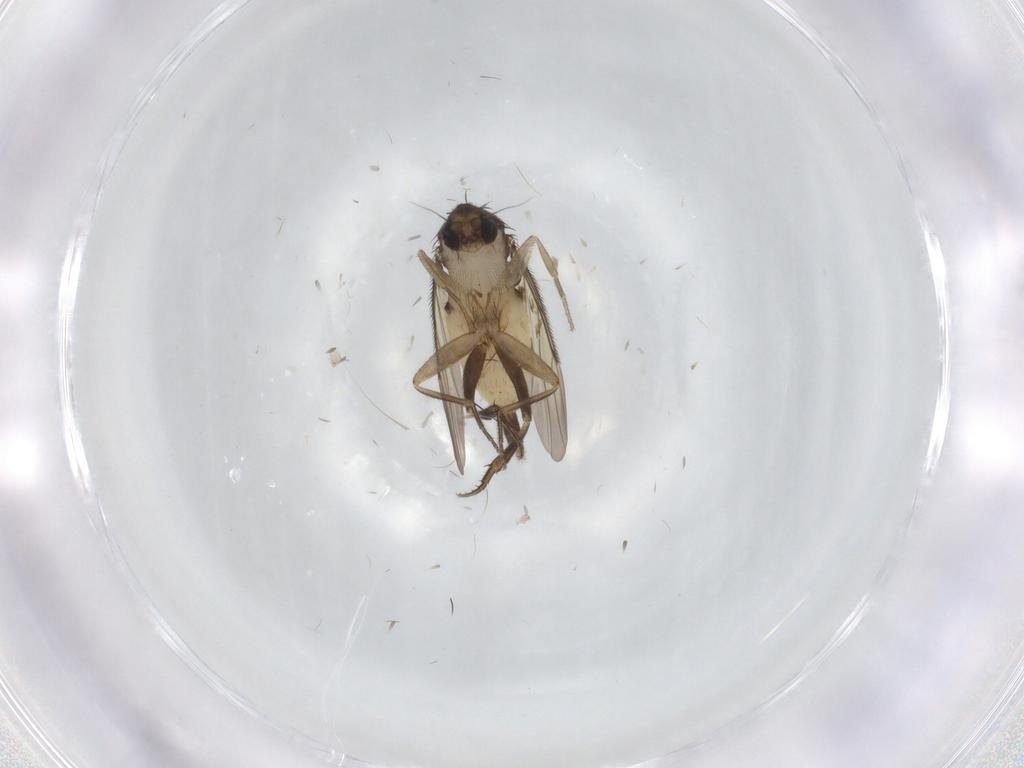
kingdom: Animalia
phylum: Arthropoda
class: Insecta
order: Diptera
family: Phoridae
